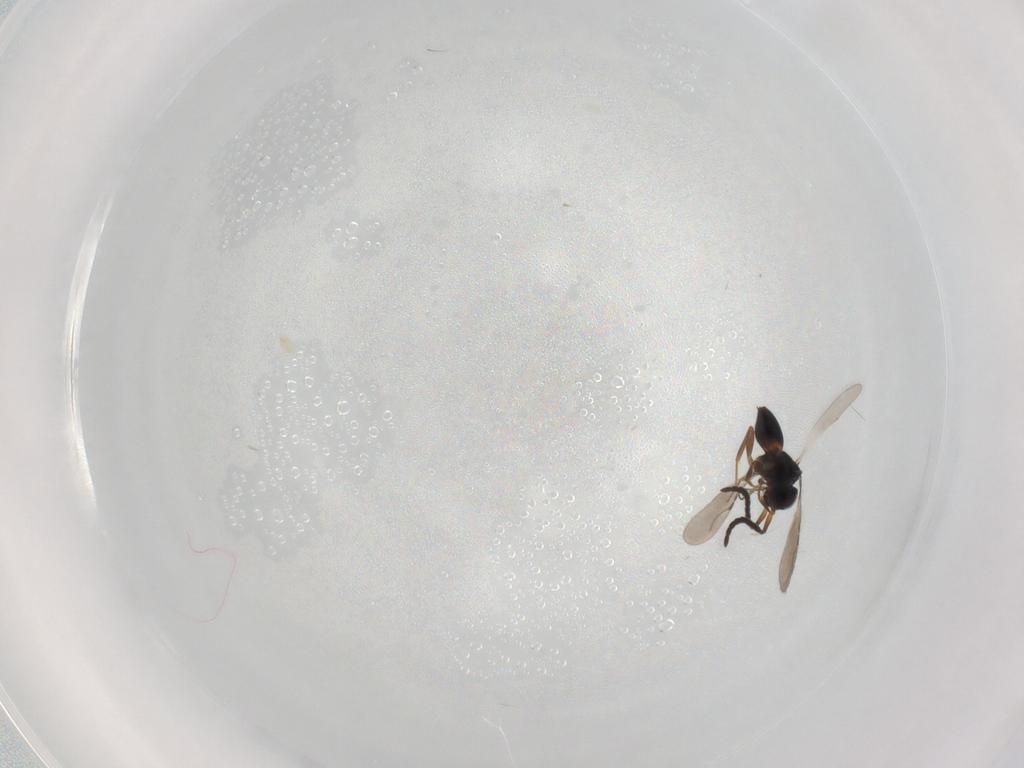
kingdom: Animalia
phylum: Arthropoda
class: Insecta
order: Hymenoptera
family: Ceraphronidae
